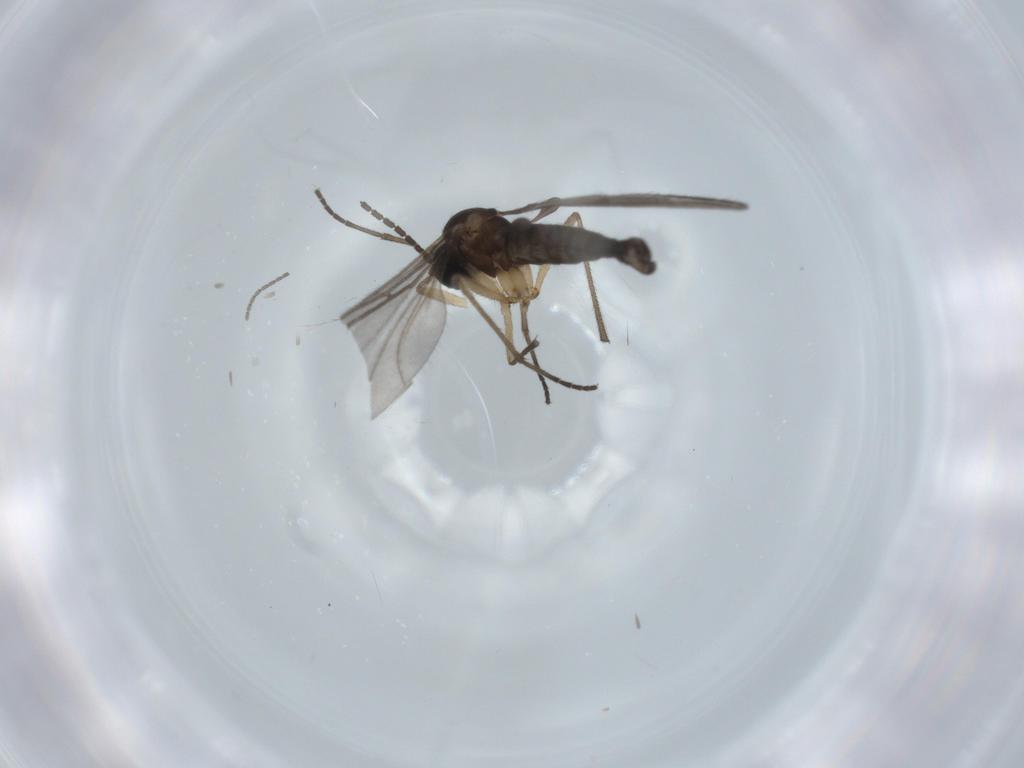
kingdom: Animalia
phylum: Arthropoda
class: Insecta
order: Diptera
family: Sciaridae
